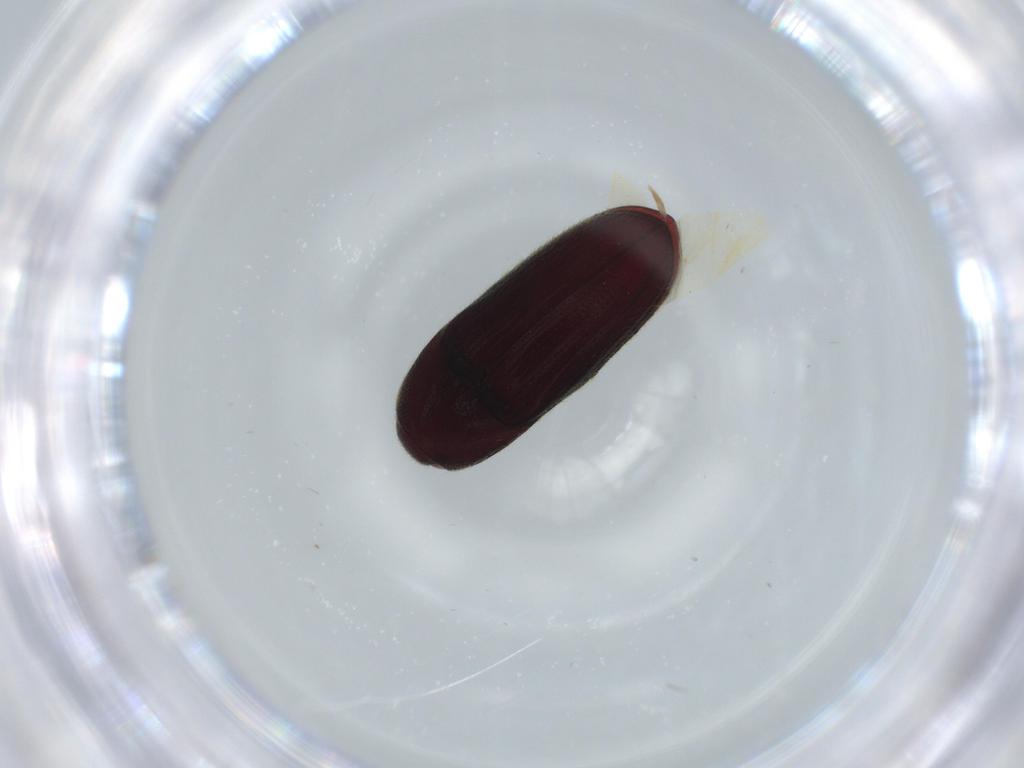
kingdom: Animalia
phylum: Arthropoda
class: Insecta
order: Coleoptera
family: Throscidae
